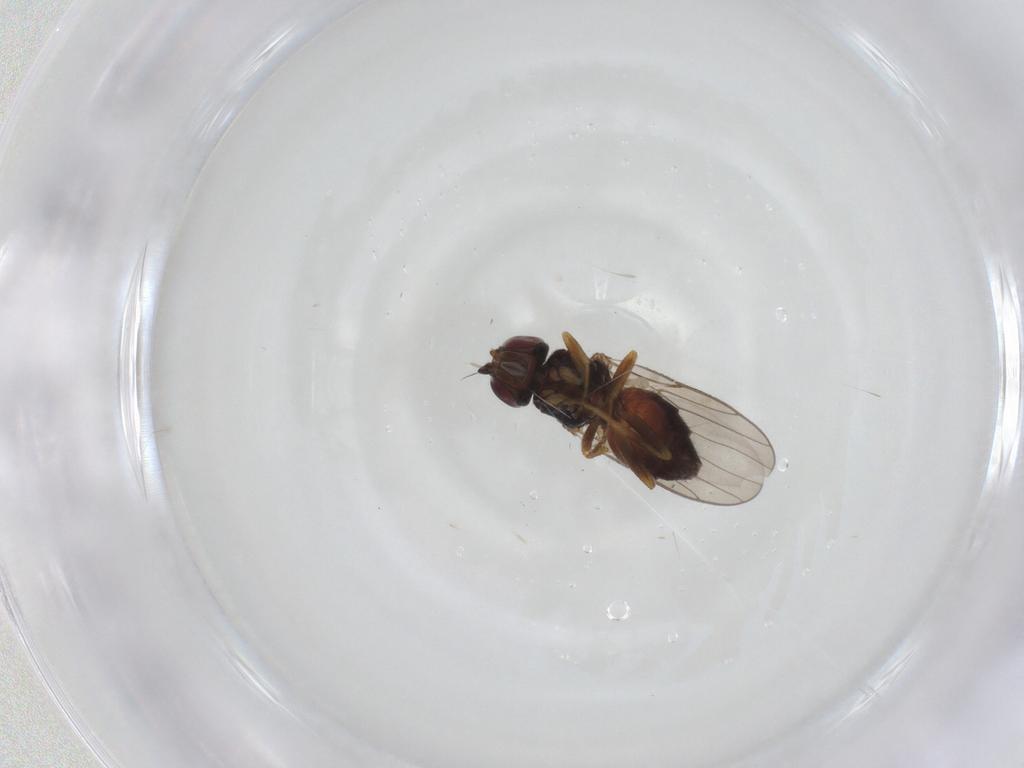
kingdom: Animalia
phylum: Arthropoda
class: Insecta
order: Diptera
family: Chloropidae
